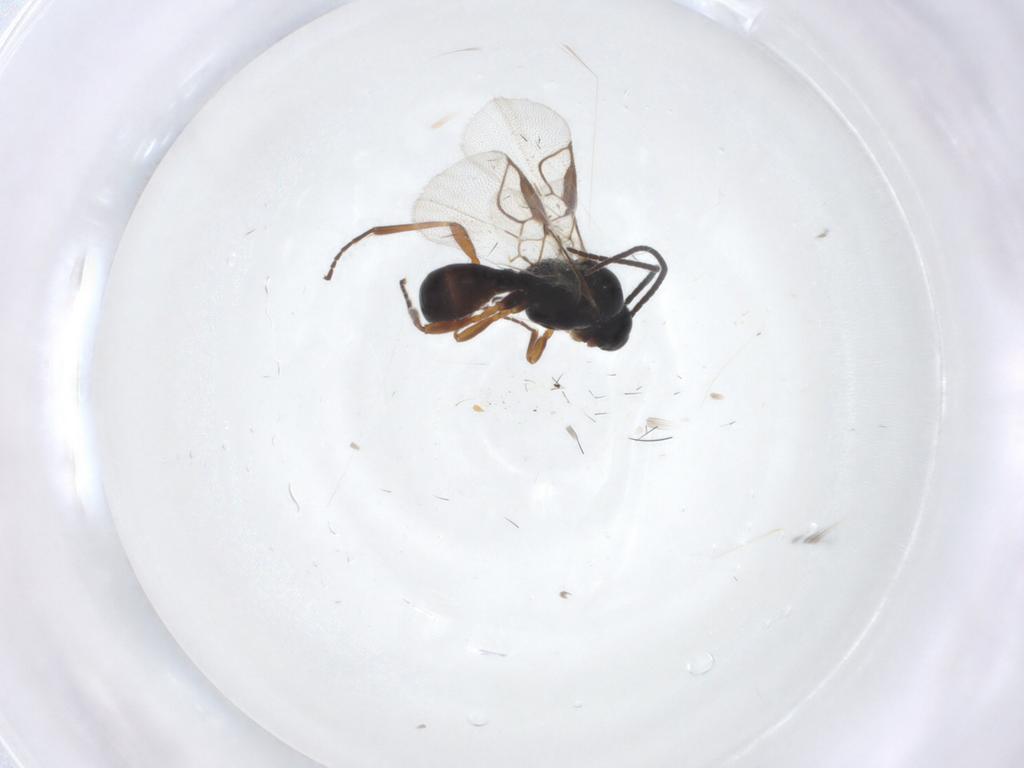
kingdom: Animalia
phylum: Arthropoda
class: Insecta
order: Hymenoptera
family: Braconidae
